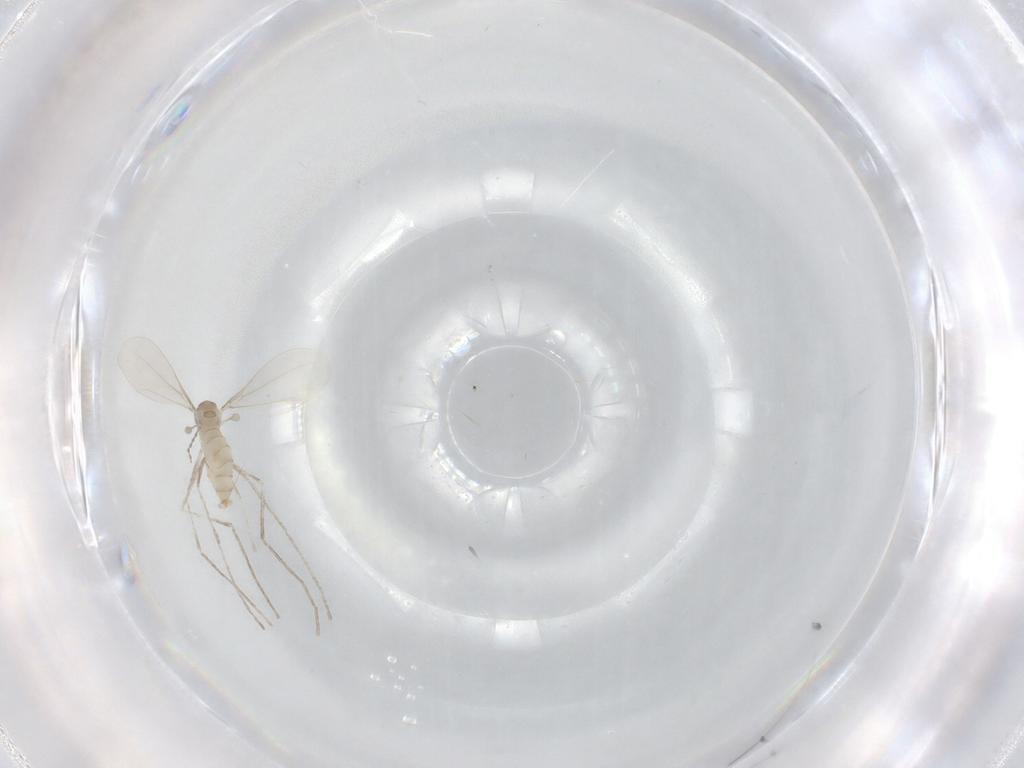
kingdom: Animalia
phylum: Arthropoda
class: Insecta
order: Diptera
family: Cecidomyiidae
